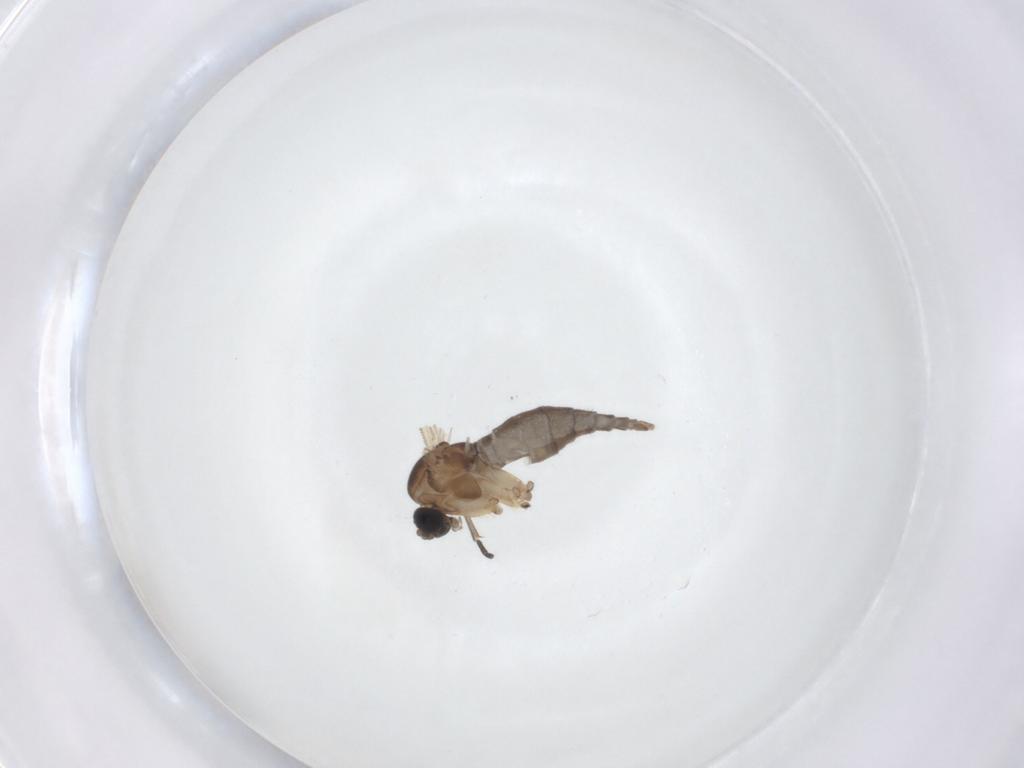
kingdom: Animalia
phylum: Arthropoda
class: Insecta
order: Diptera
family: Sciaridae
